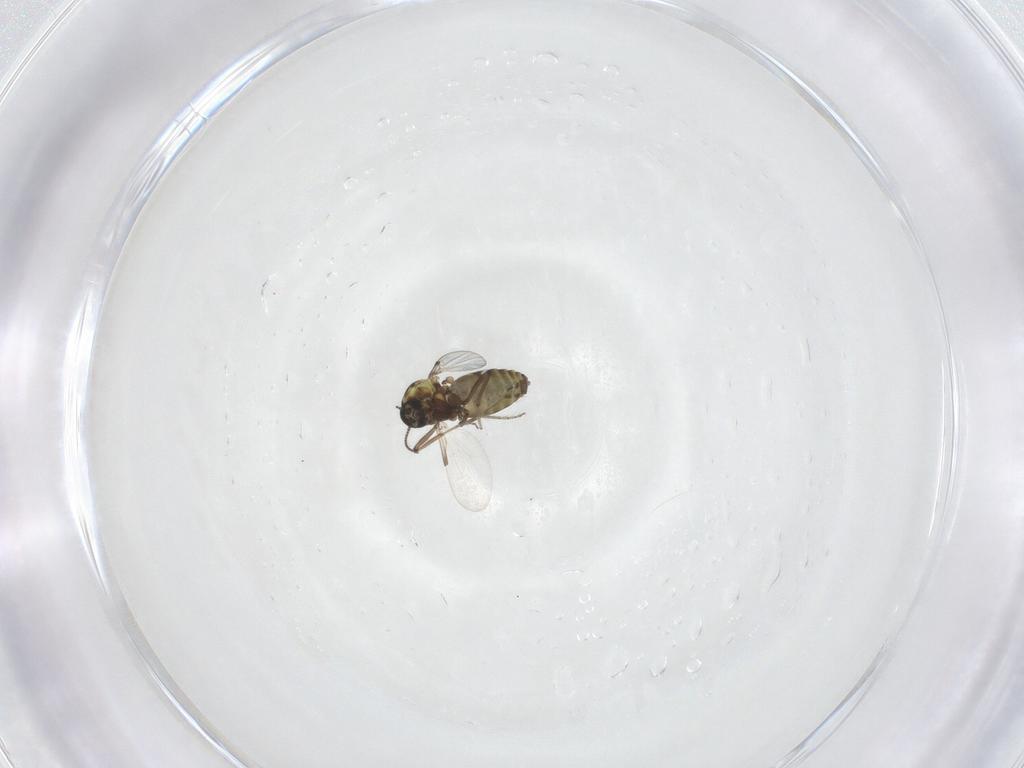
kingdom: Animalia
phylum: Arthropoda
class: Insecta
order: Diptera
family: Ceratopogonidae
